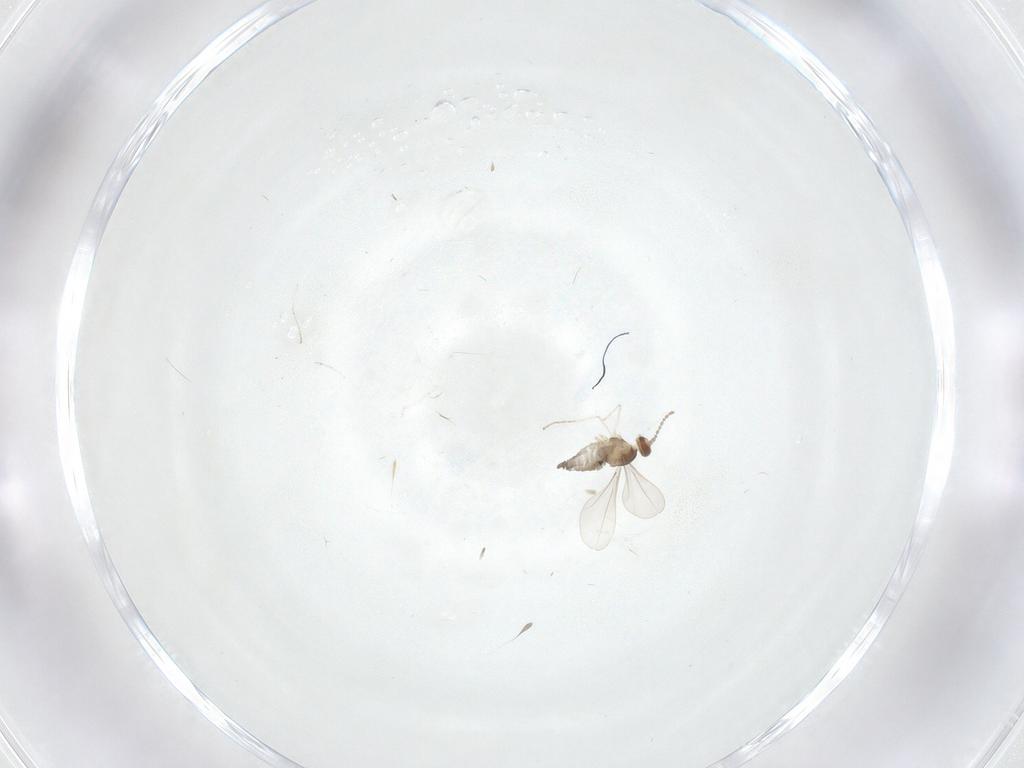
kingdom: Animalia
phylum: Arthropoda
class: Insecta
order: Diptera
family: Cecidomyiidae
